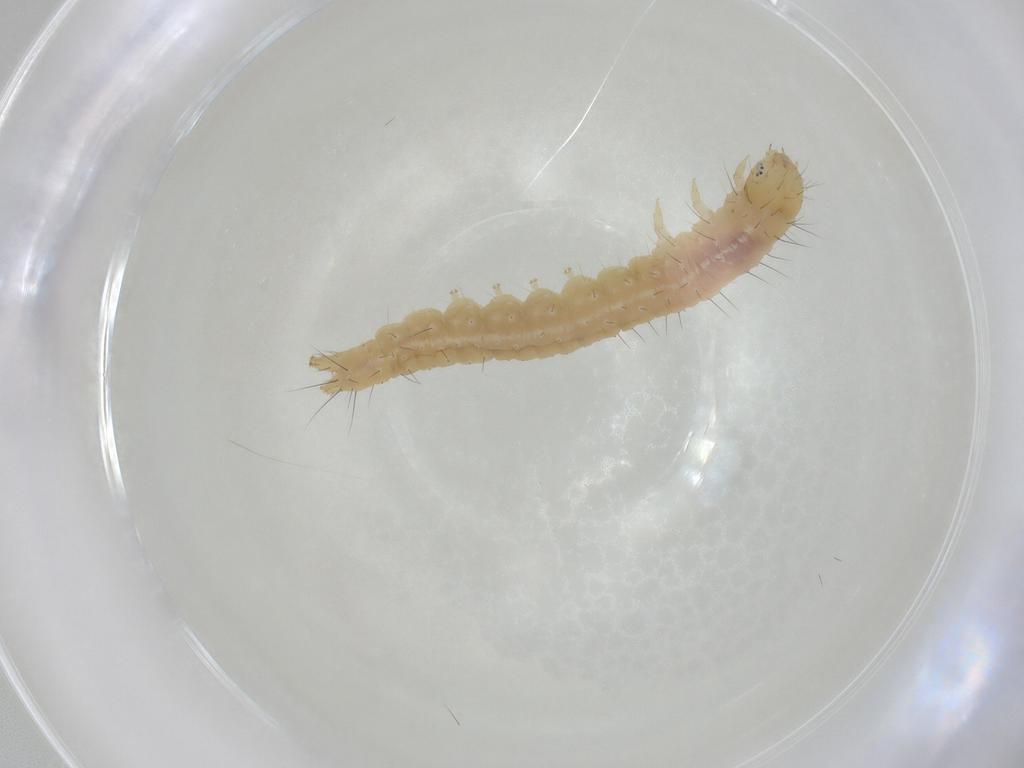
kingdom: Animalia
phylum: Arthropoda
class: Insecta
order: Lepidoptera
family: Gelechiidae
